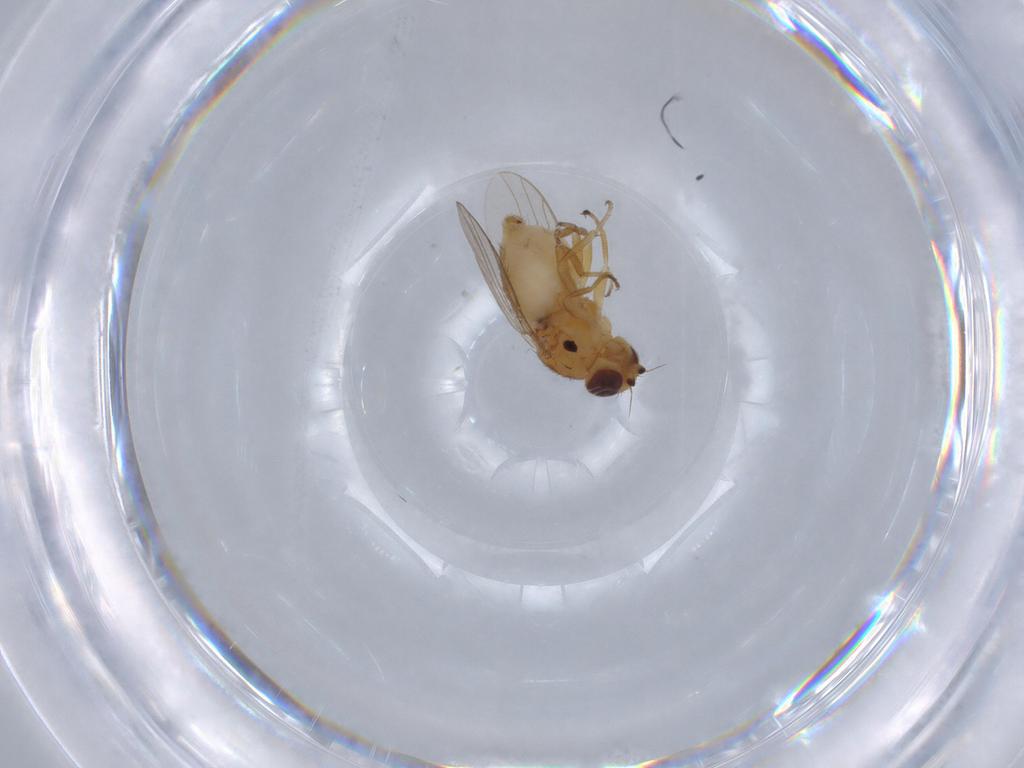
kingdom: Animalia
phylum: Arthropoda
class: Insecta
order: Diptera
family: Chloropidae
